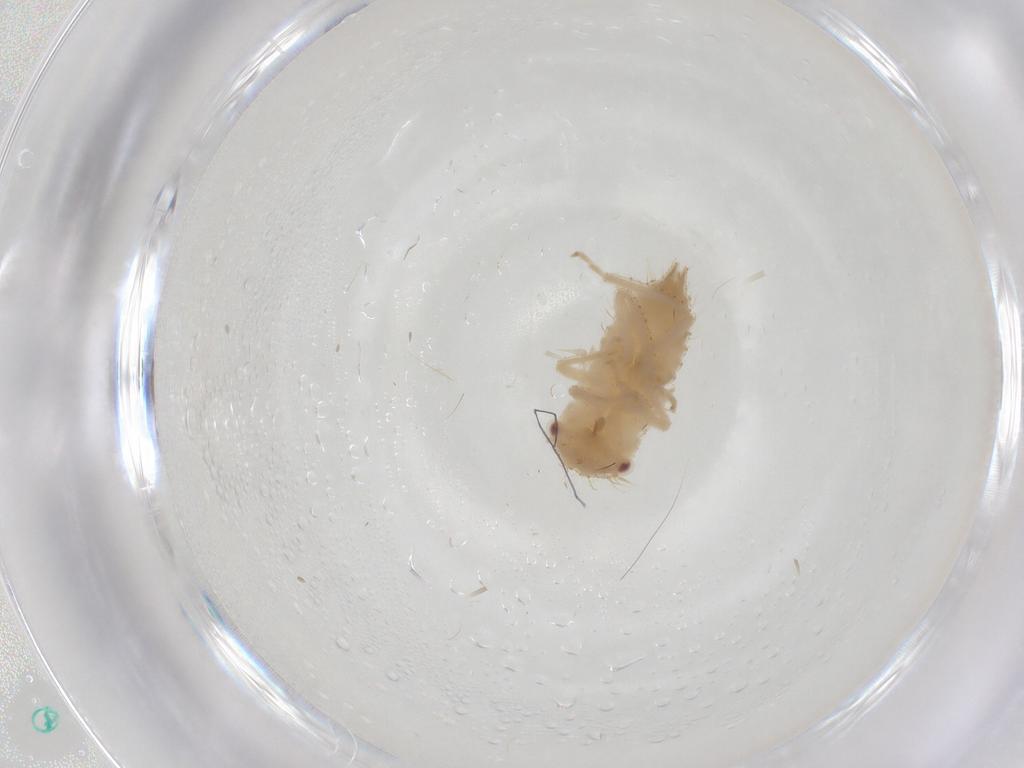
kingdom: Animalia
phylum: Arthropoda
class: Insecta
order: Hemiptera
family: Cicadellidae
